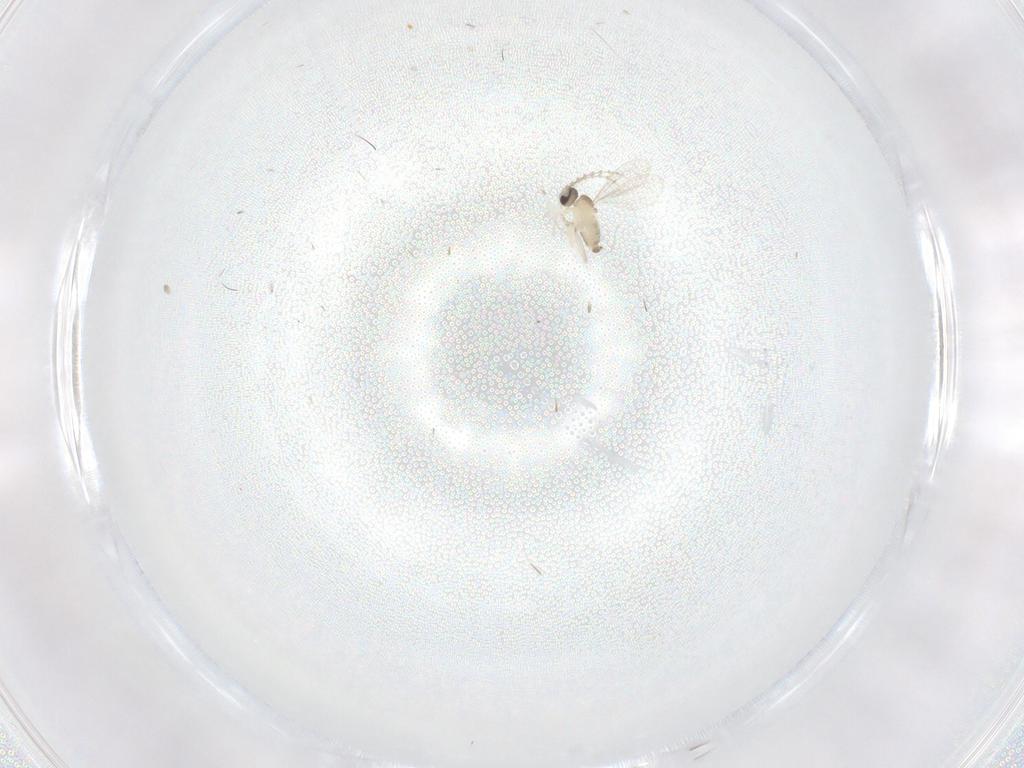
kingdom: Animalia
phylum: Arthropoda
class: Insecta
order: Diptera
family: Cecidomyiidae
